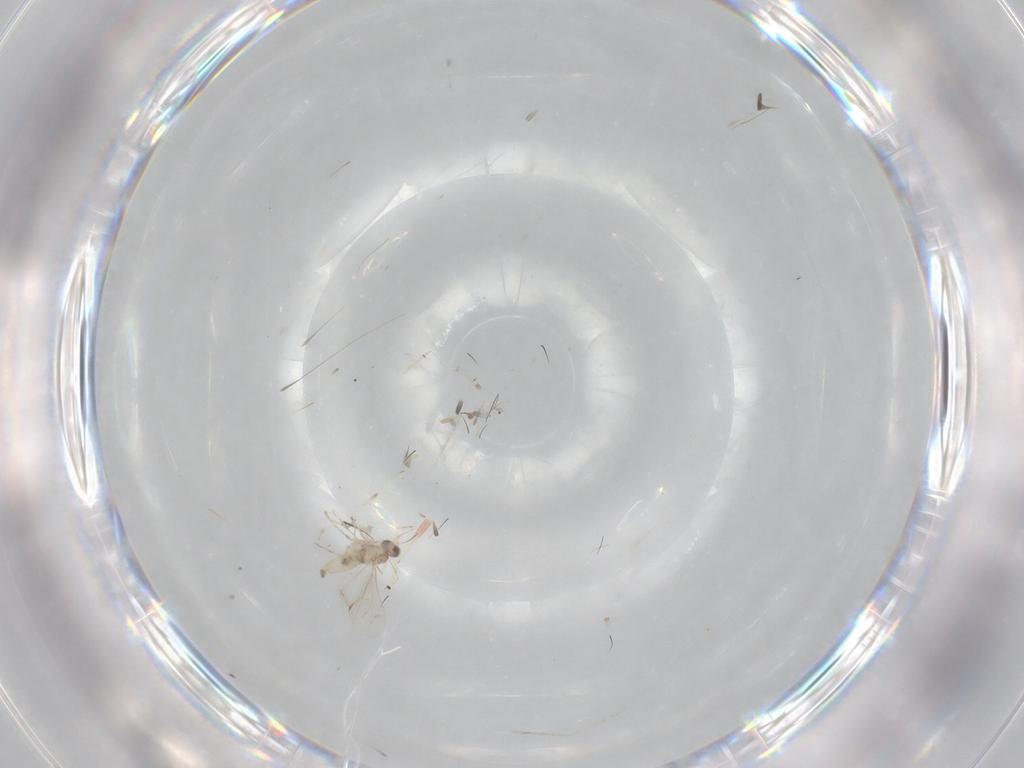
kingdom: Animalia
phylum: Arthropoda
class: Insecta
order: Diptera
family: Cecidomyiidae
